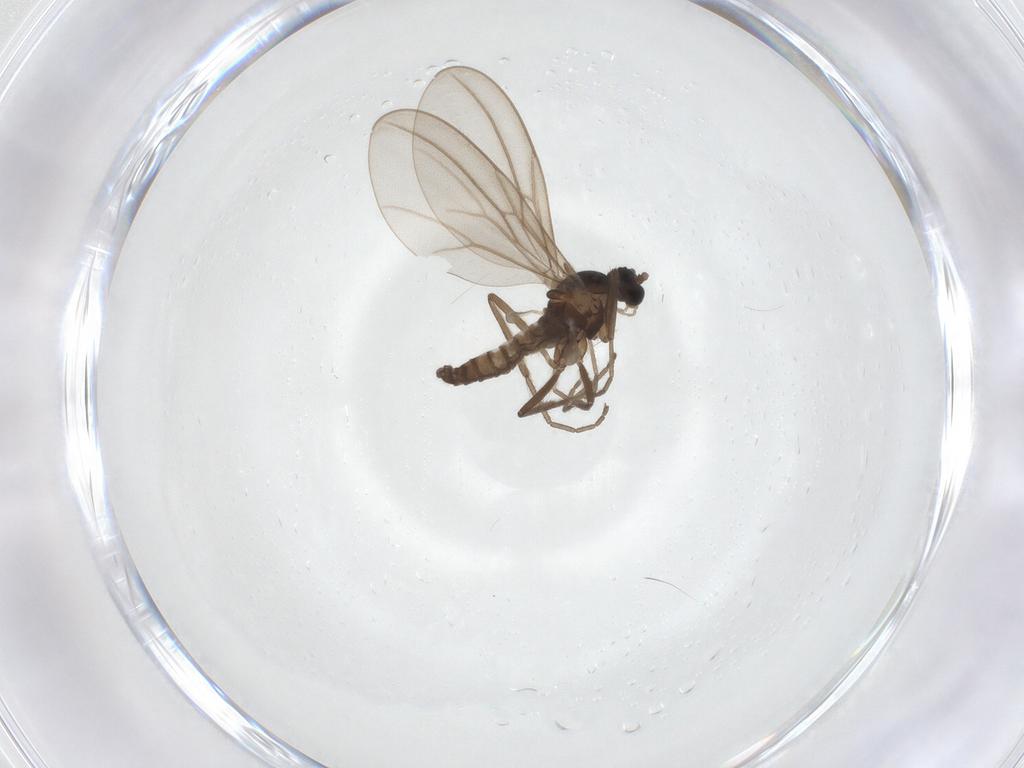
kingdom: Animalia
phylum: Arthropoda
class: Insecta
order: Diptera
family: Cecidomyiidae
